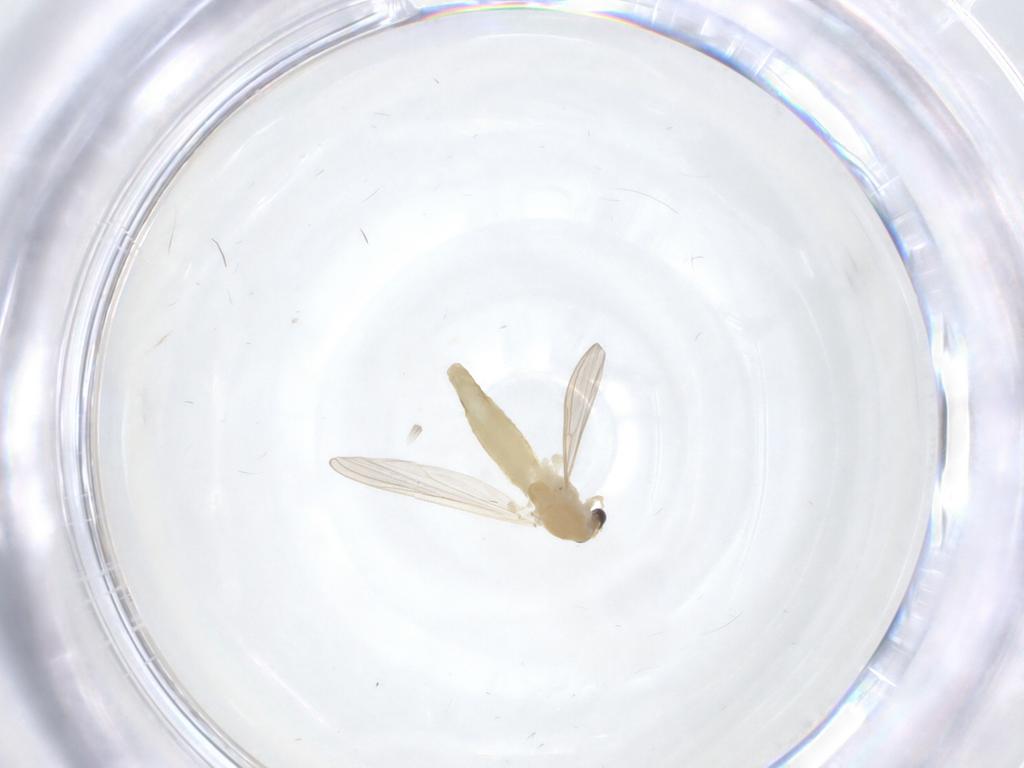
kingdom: Animalia
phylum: Arthropoda
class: Insecta
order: Diptera
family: Chironomidae
